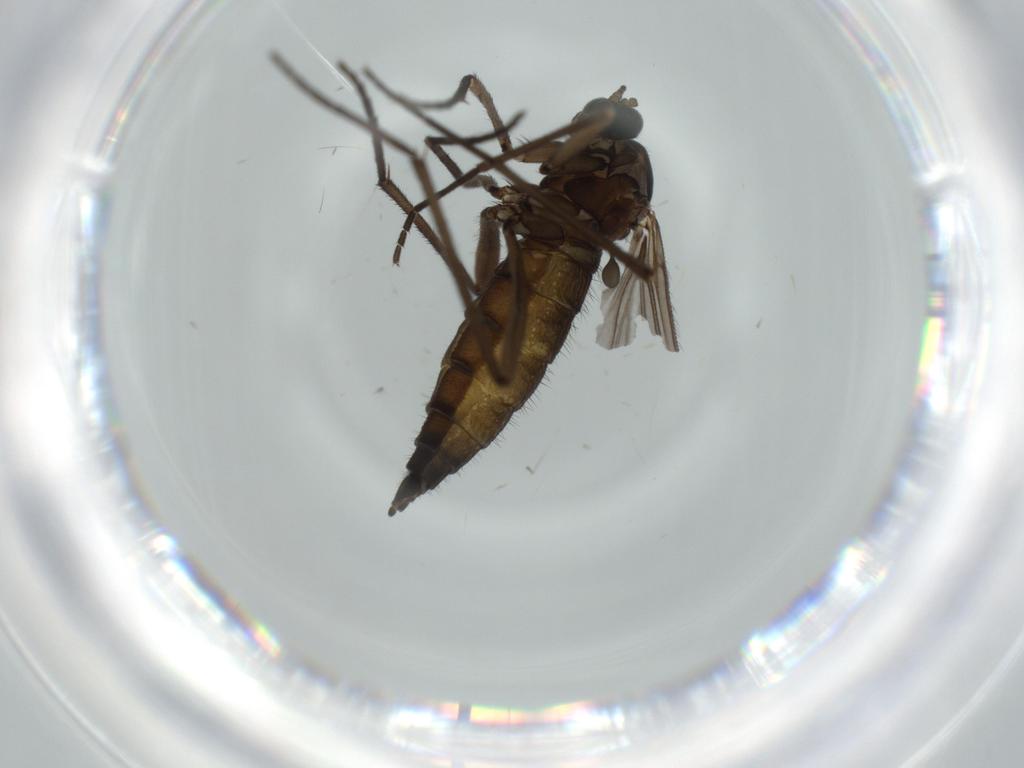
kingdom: Animalia
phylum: Arthropoda
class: Insecta
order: Diptera
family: Sciaridae
